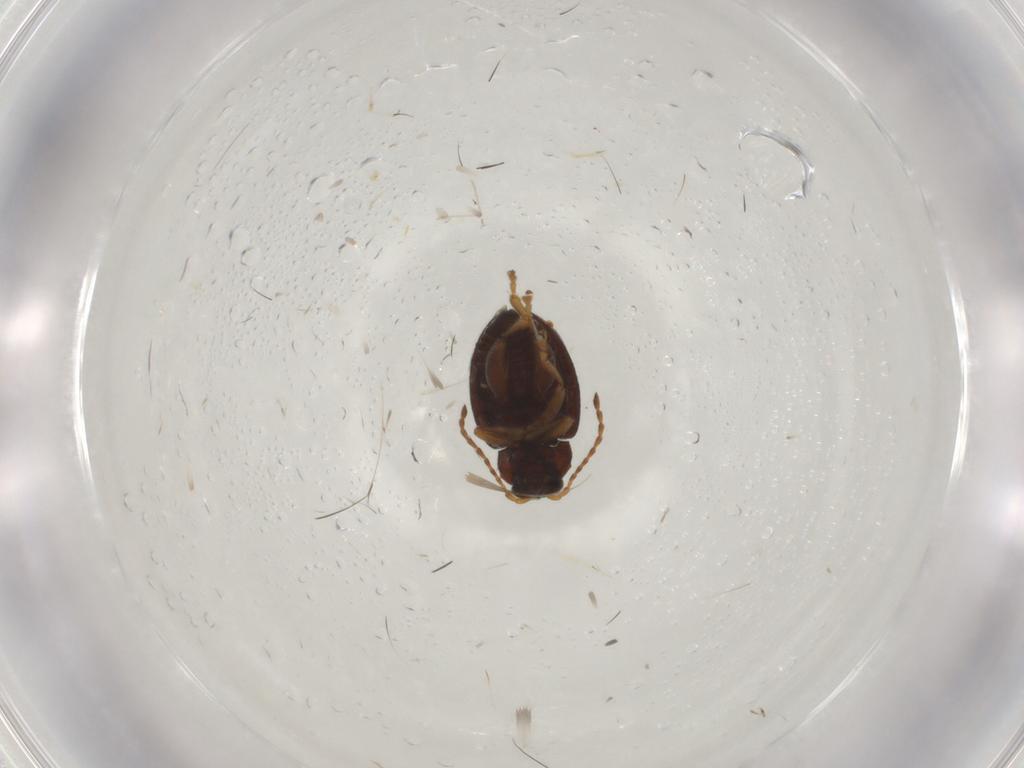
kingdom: Animalia
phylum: Arthropoda
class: Insecta
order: Coleoptera
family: Chrysomelidae
